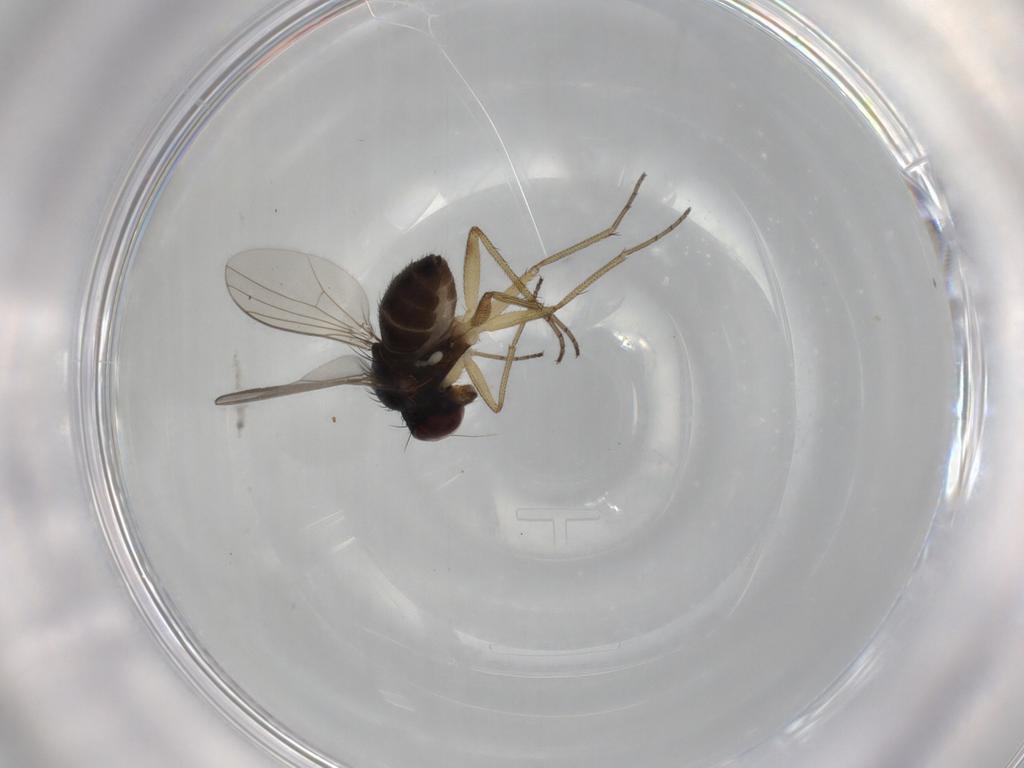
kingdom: Animalia
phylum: Arthropoda
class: Insecta
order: Diptera
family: Dolichopodidae
